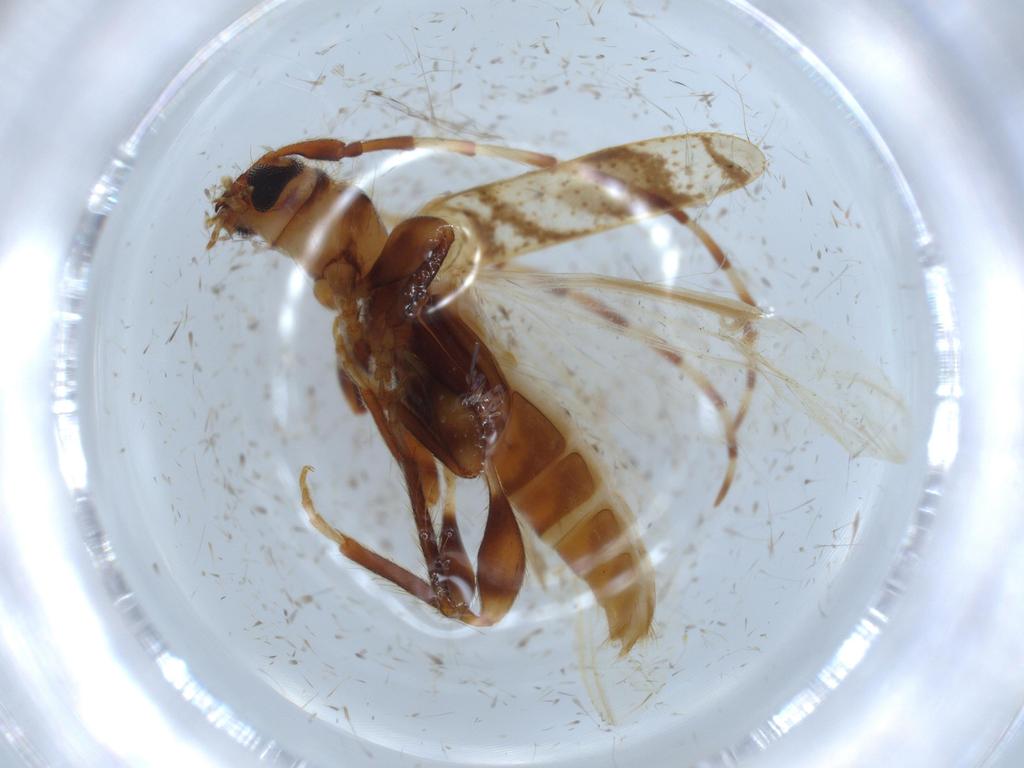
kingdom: Animalia
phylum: Arthropoda
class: Insecta
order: Coleoptera
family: Cerambycidae
